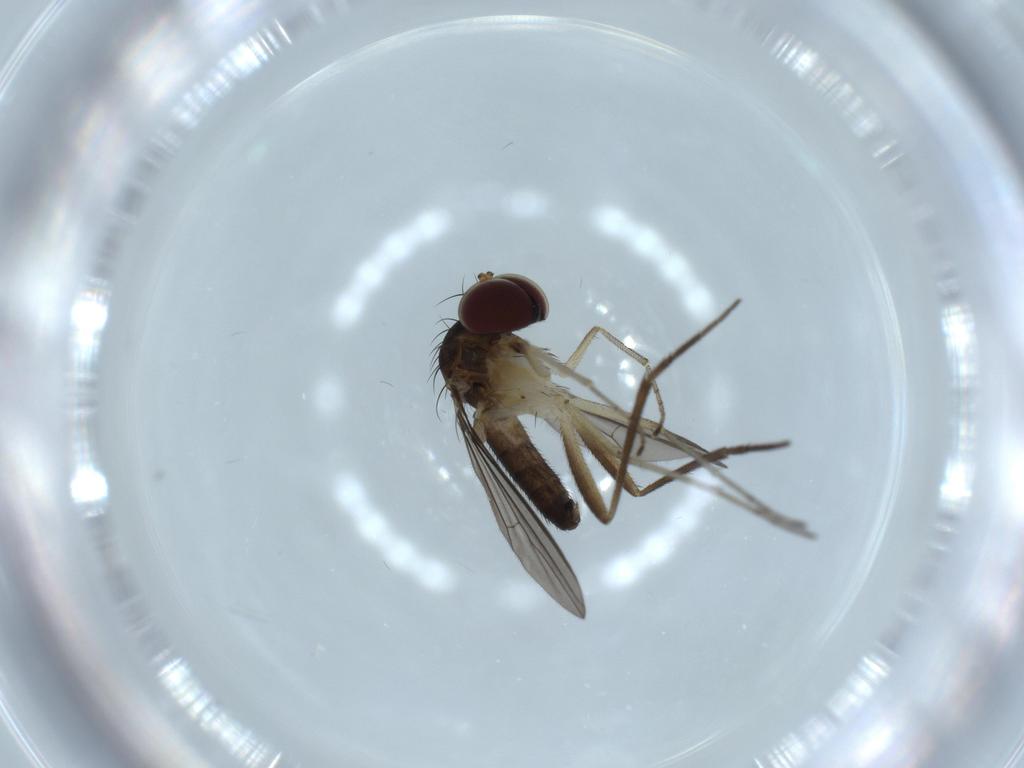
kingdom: Animalia
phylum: Arthropoda
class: Insecta
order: Diptera
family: Dolichopodidae
